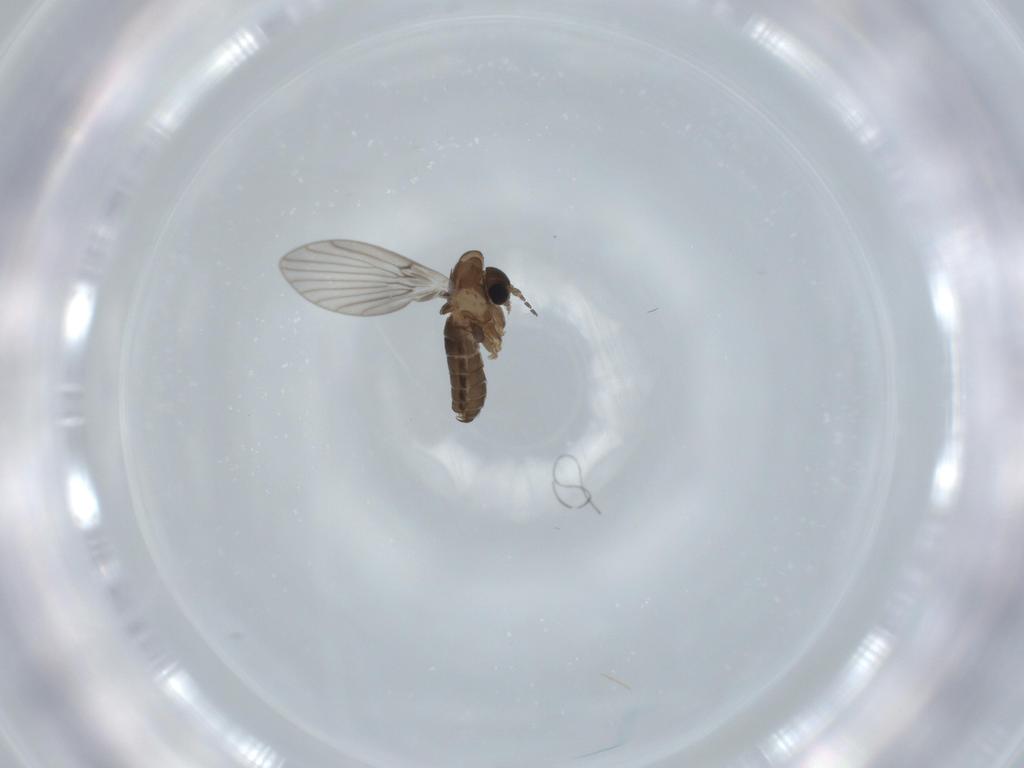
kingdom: Animalia
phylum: Arthropoda
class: Insecta
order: Diptera
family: Psychodidae
